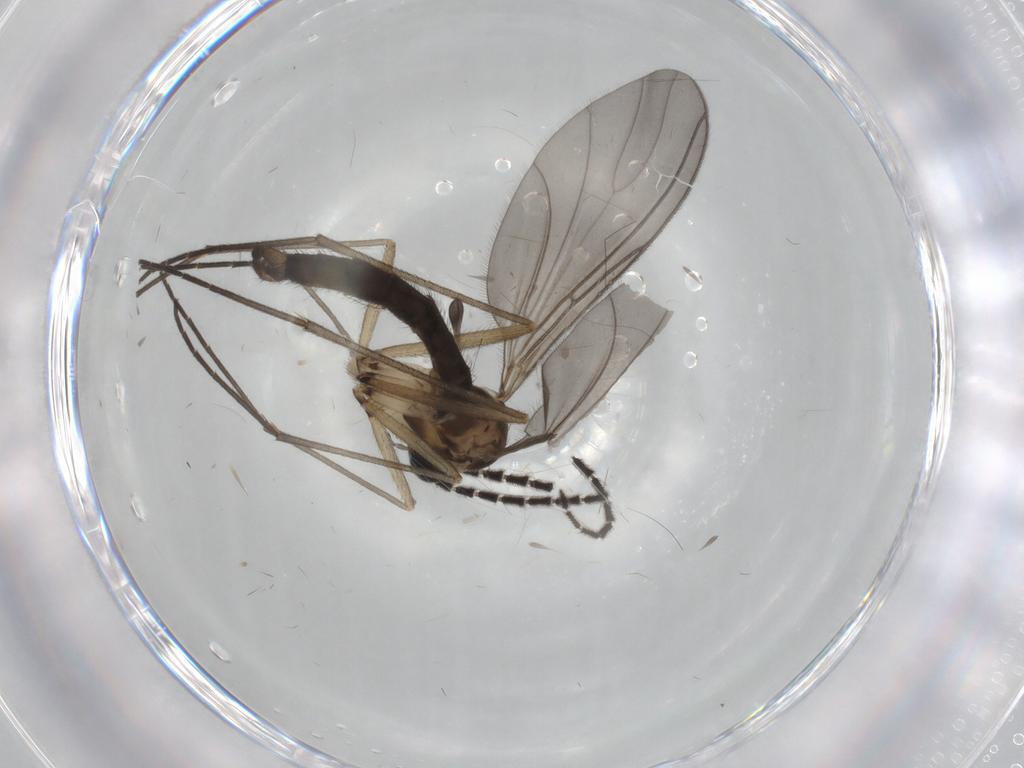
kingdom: Animalia
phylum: Arthropoda
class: Insecta
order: Diptera
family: Sciaridae
